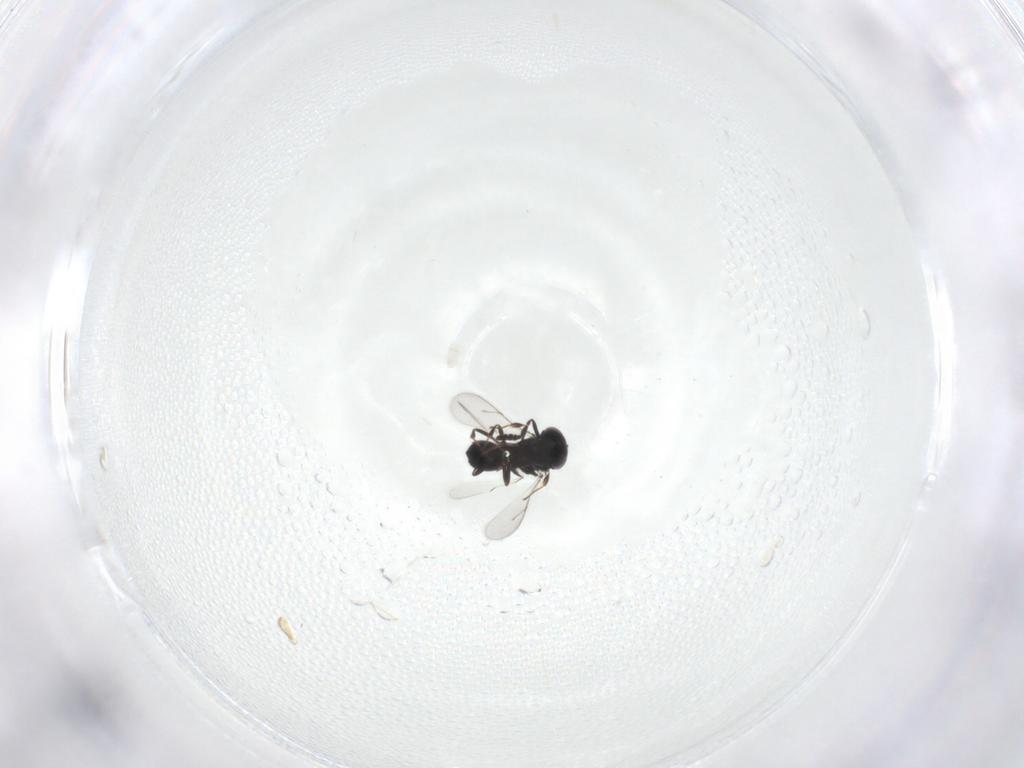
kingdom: Animalia
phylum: Arthropoda
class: Insecta
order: Hymenoptera
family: Scelionidae
